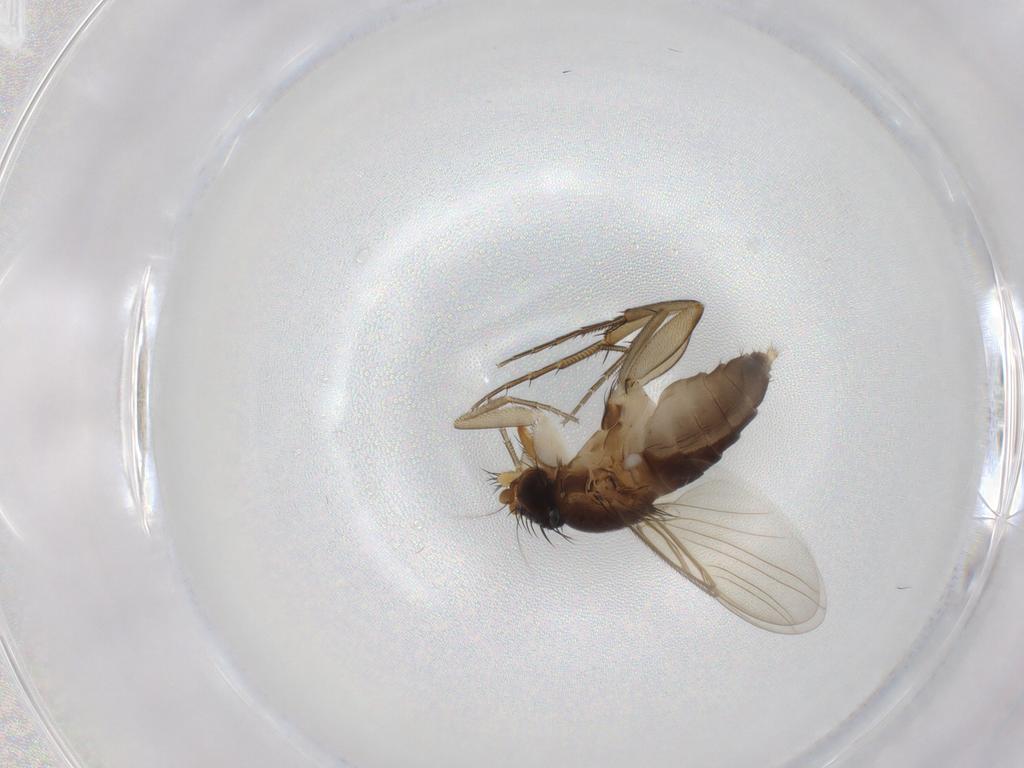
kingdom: Animalia
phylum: Arthropoda
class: Insecta
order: Diptera
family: Phoridae
